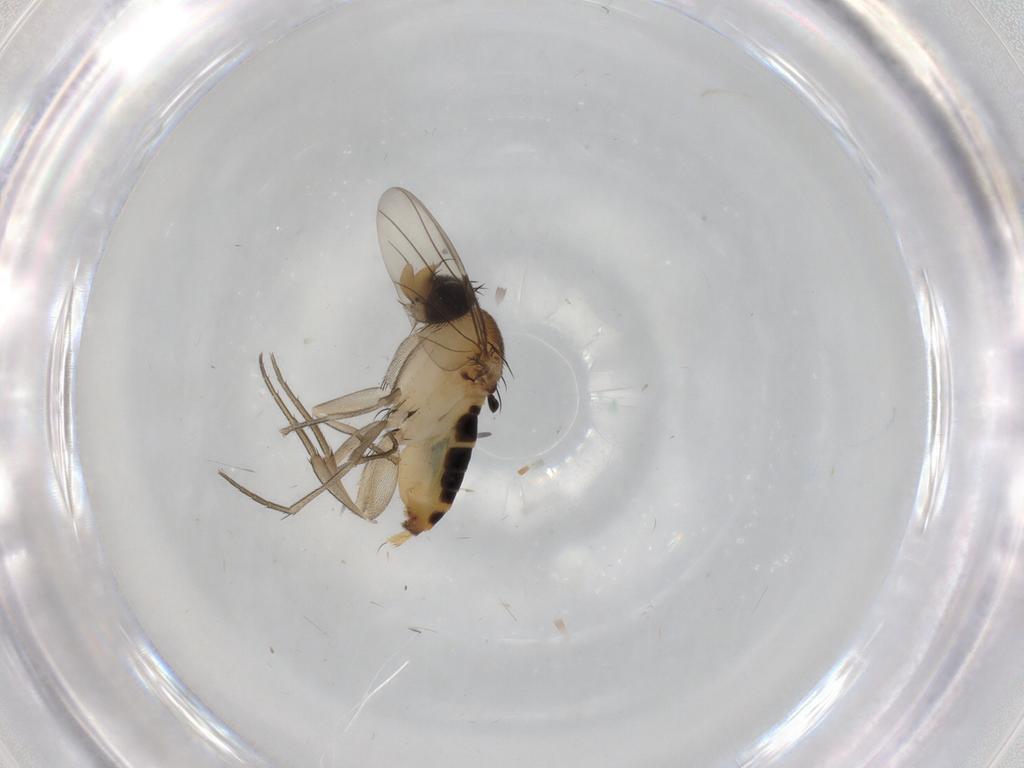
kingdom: Animalia
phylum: Arthropoda
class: Insecta
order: Diptera
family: Phoridae
